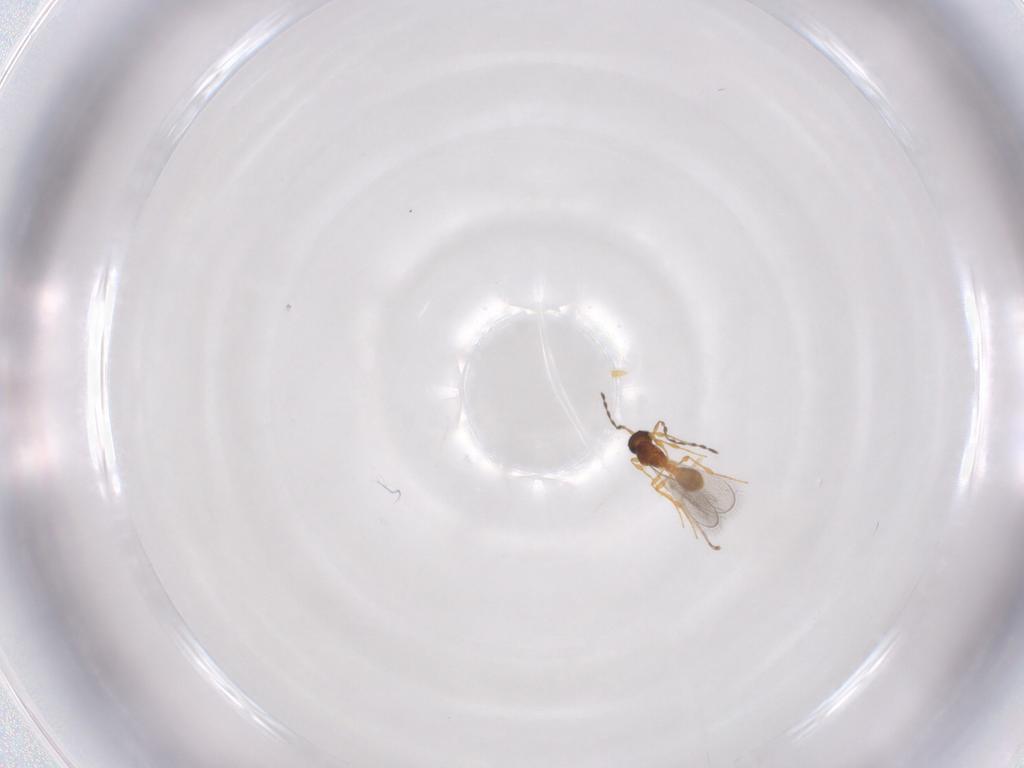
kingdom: Animalia
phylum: Arthropoda
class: Insecta
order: Hymenoptera
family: Platygastridae
